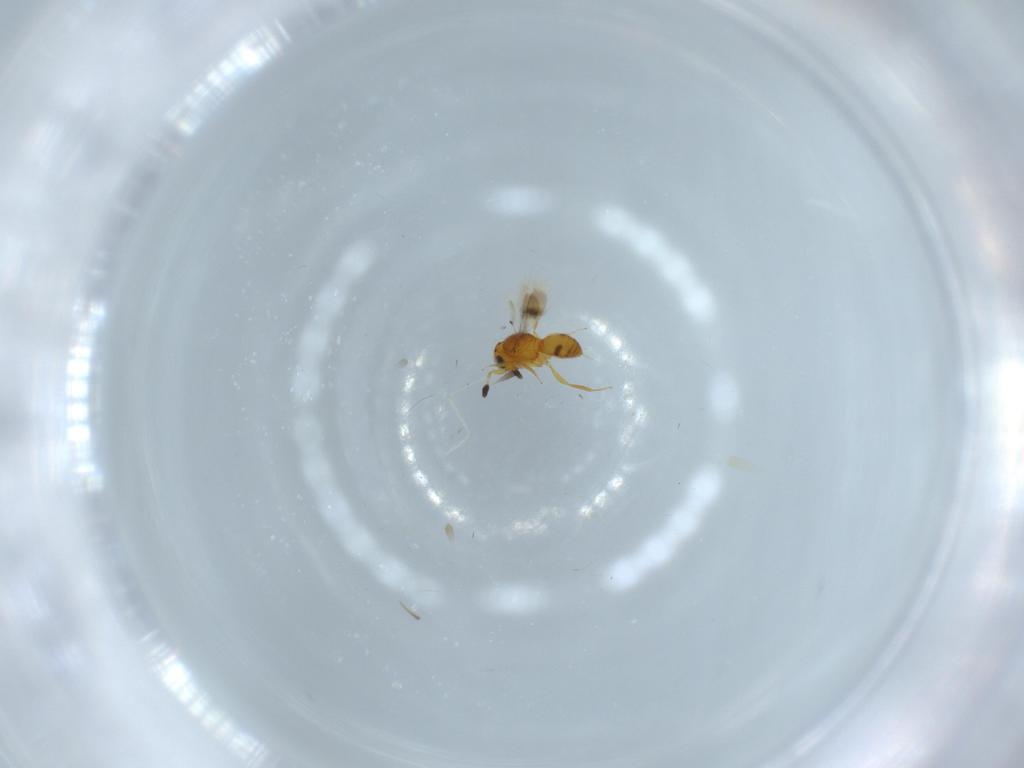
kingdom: Animalia
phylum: Arthropoda
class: Insecta
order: Hymenoptera
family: Scelionidae
